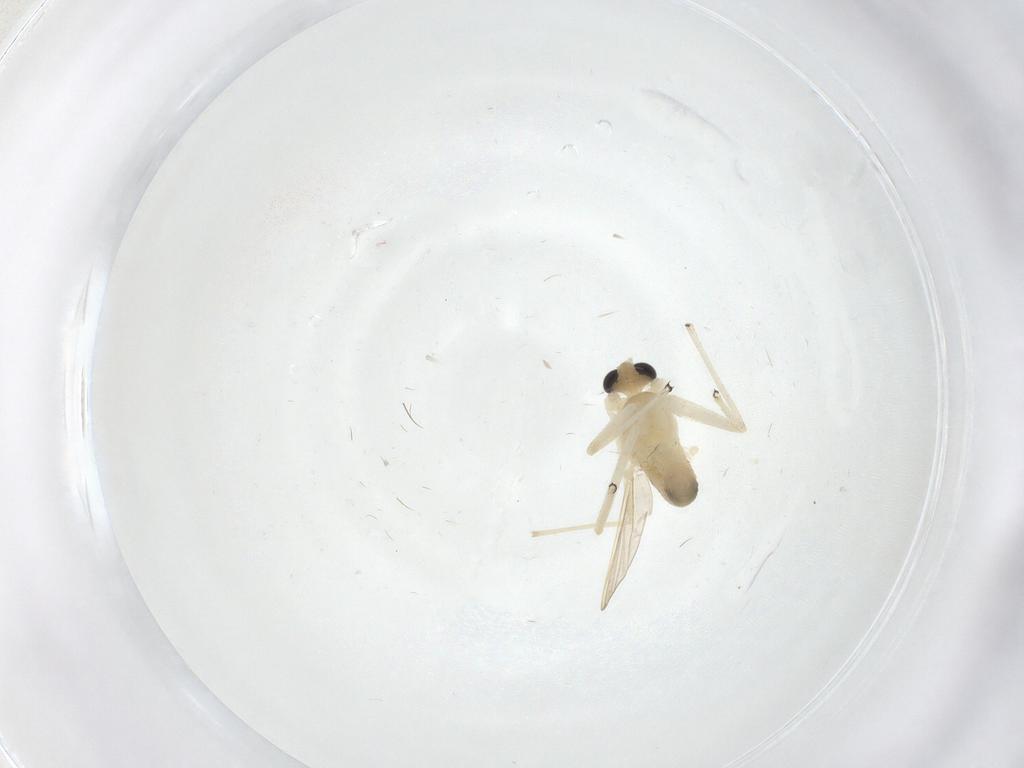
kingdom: Animalia
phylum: Arthropoda
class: Insecta
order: Diptera
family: Chironomidae
